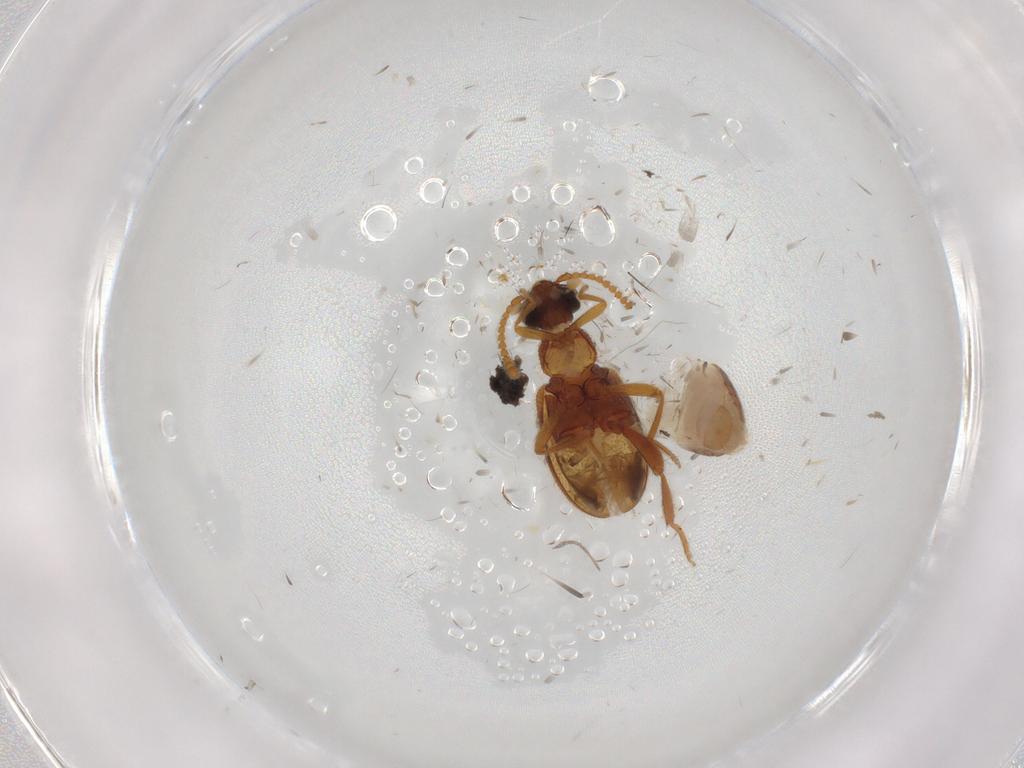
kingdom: Animalia
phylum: Arthropoda
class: Insecta
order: Coleoptera
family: Aderidae
